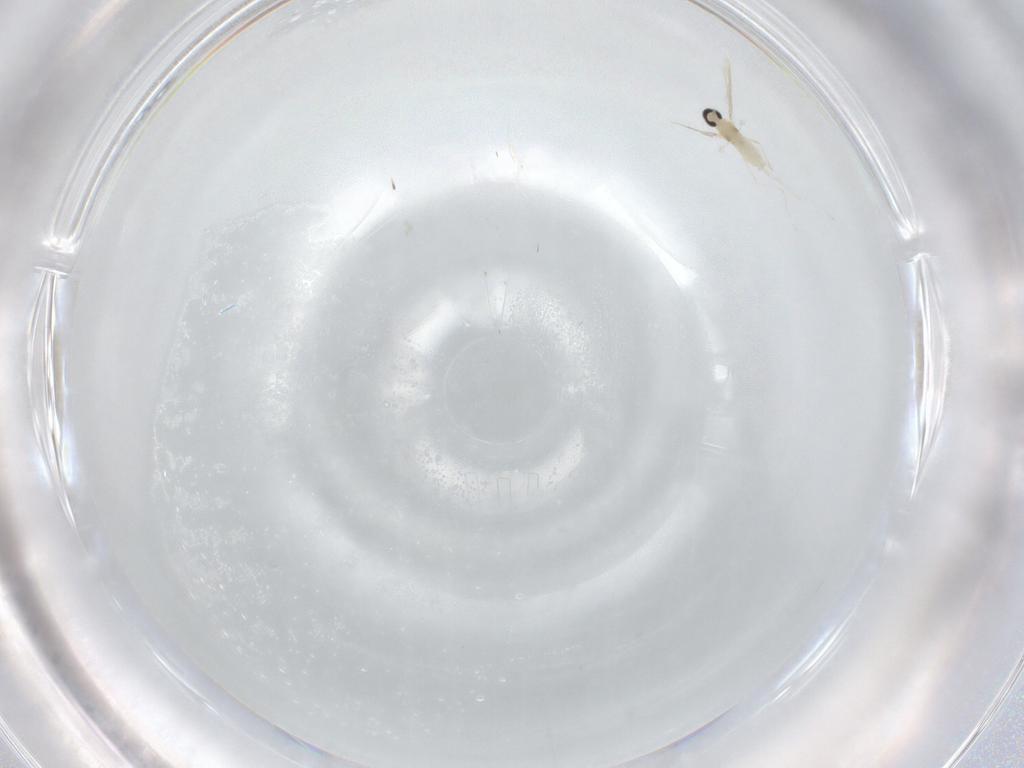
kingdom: Animalia
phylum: Arthropoda
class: Insecta
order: Diptera
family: Cecidomyiidae
